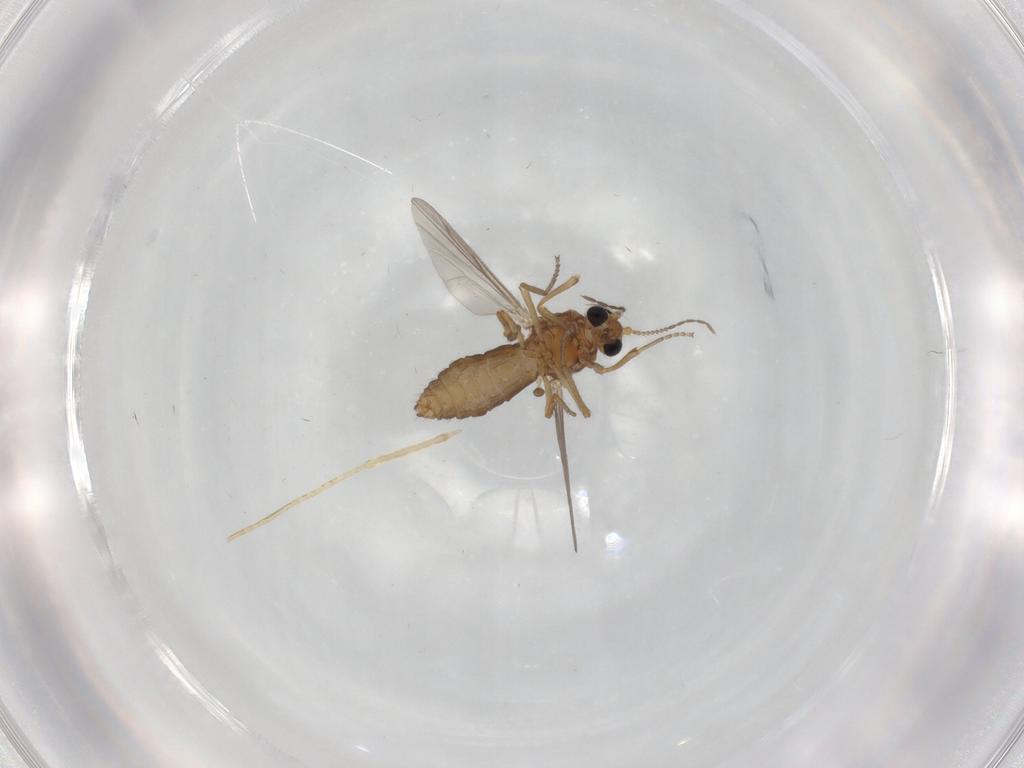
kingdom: Animalia
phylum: Arthropoda
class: Insecta
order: Diptera
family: Ceratopogonidae
